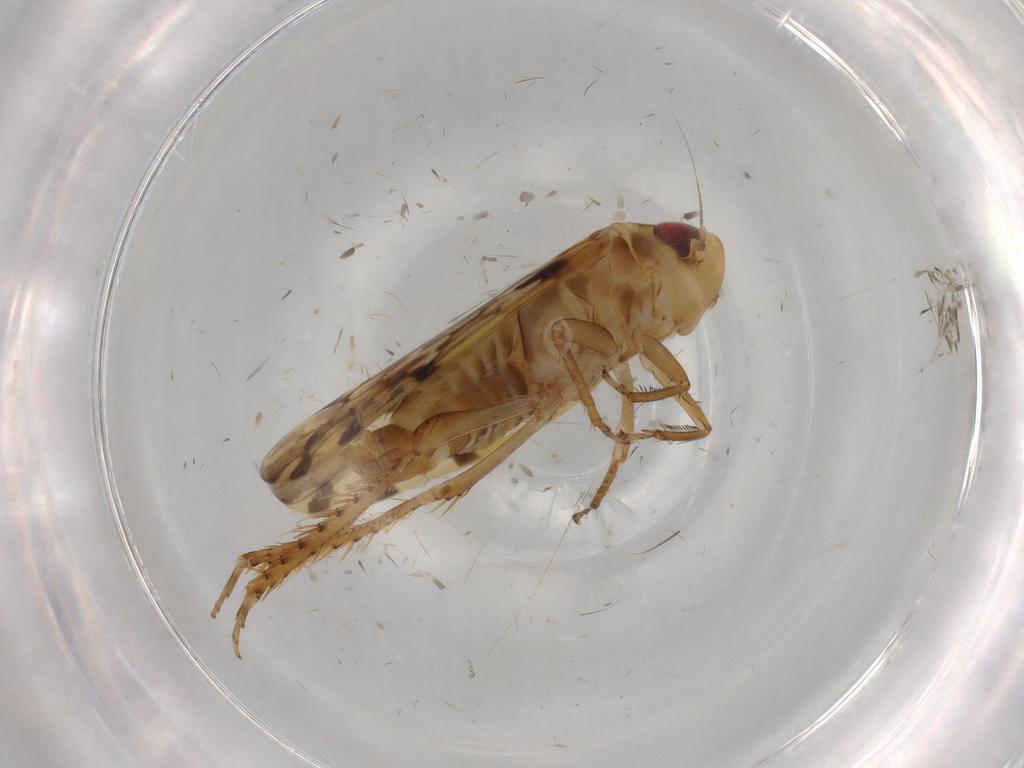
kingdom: Animalia
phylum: Arthropoda
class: Insecta
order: Hemiptera
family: Cicadellidae
